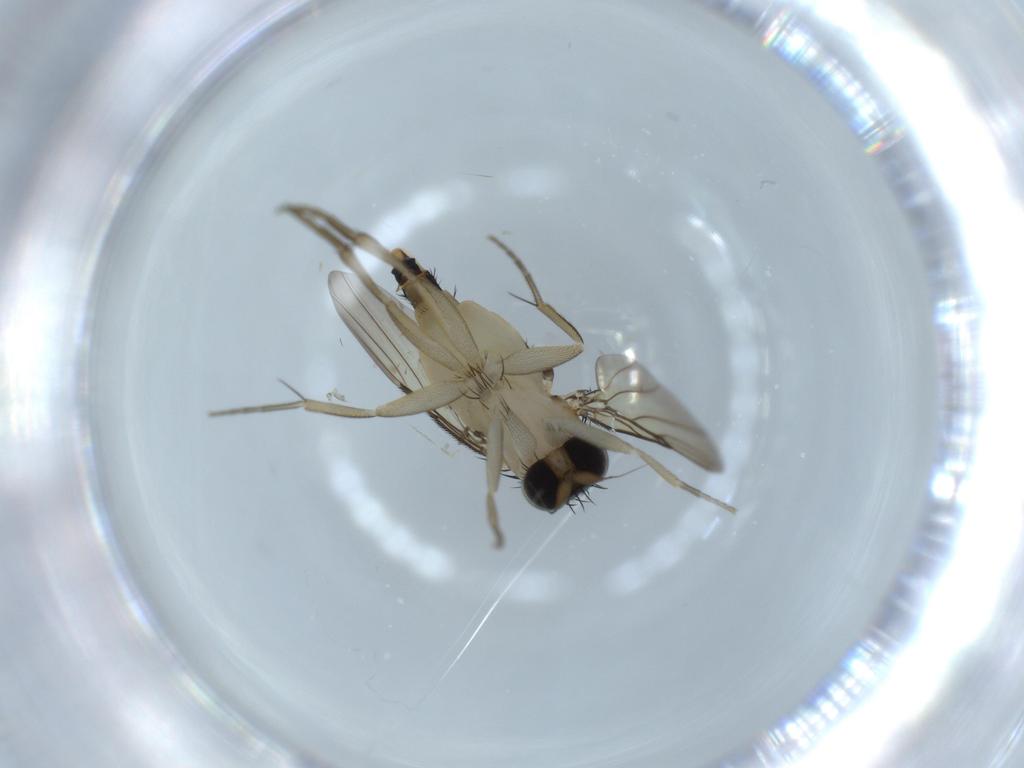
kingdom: Animalia
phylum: Arthropoda
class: Insecta
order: Diptera
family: Phoridae
